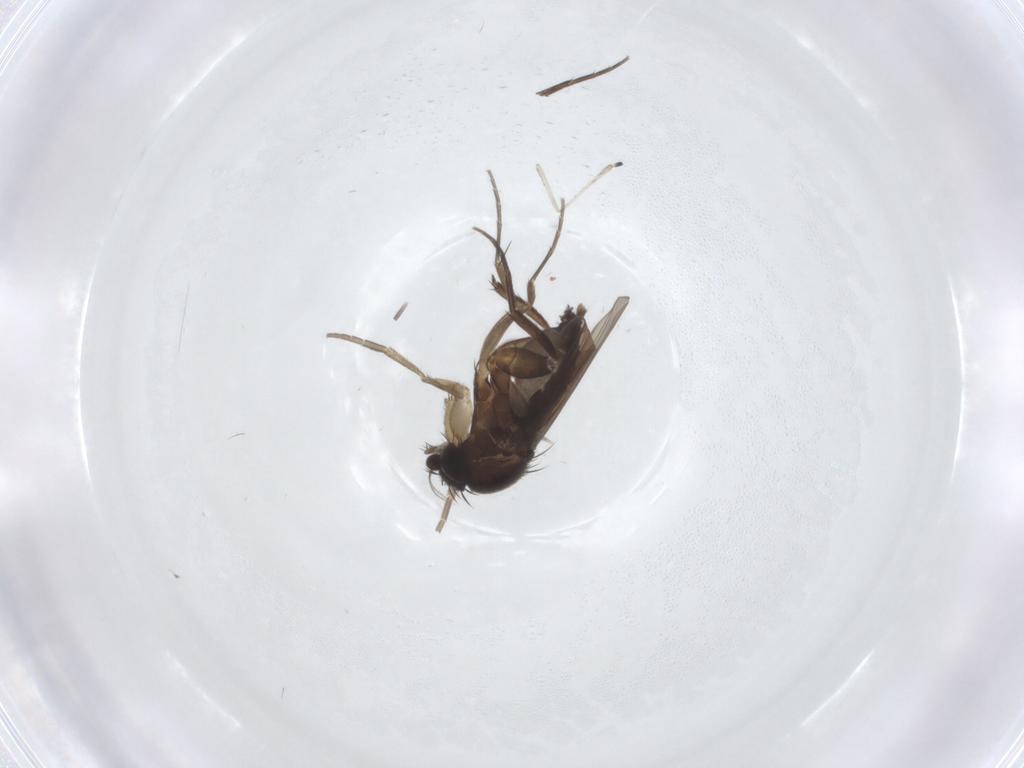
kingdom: Animalia
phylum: Arthropoda
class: Insecta
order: Diptera
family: Phoridae
